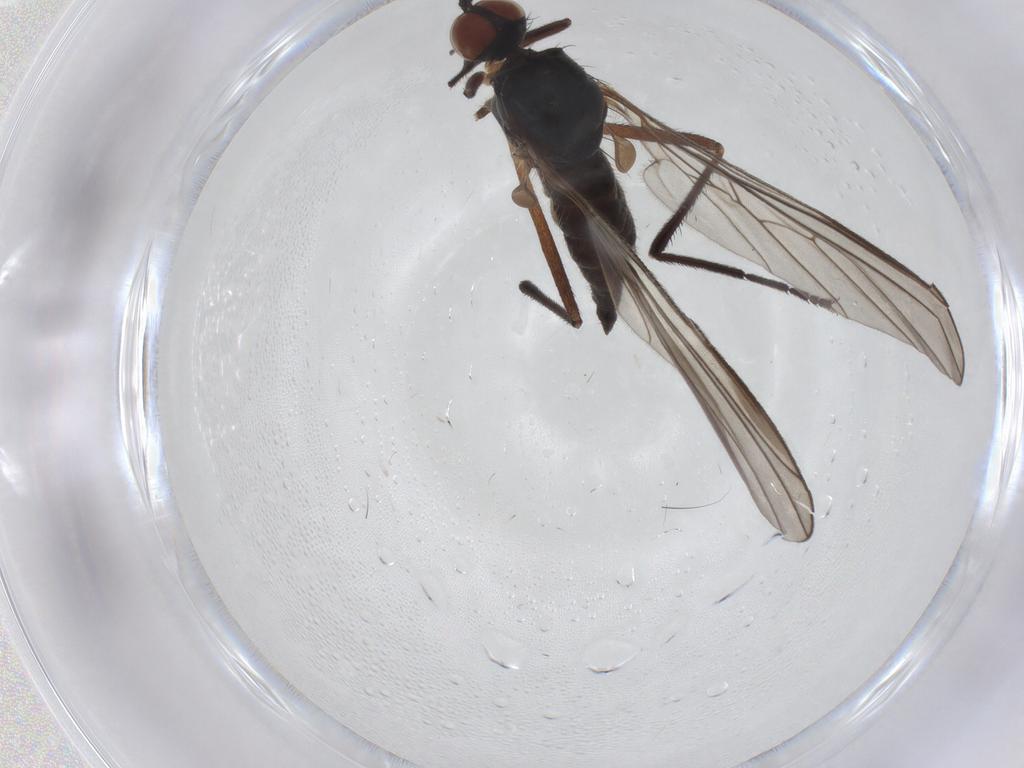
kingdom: Animalia
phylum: Arthropoda
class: Insecta
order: Diptera
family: Empididae
